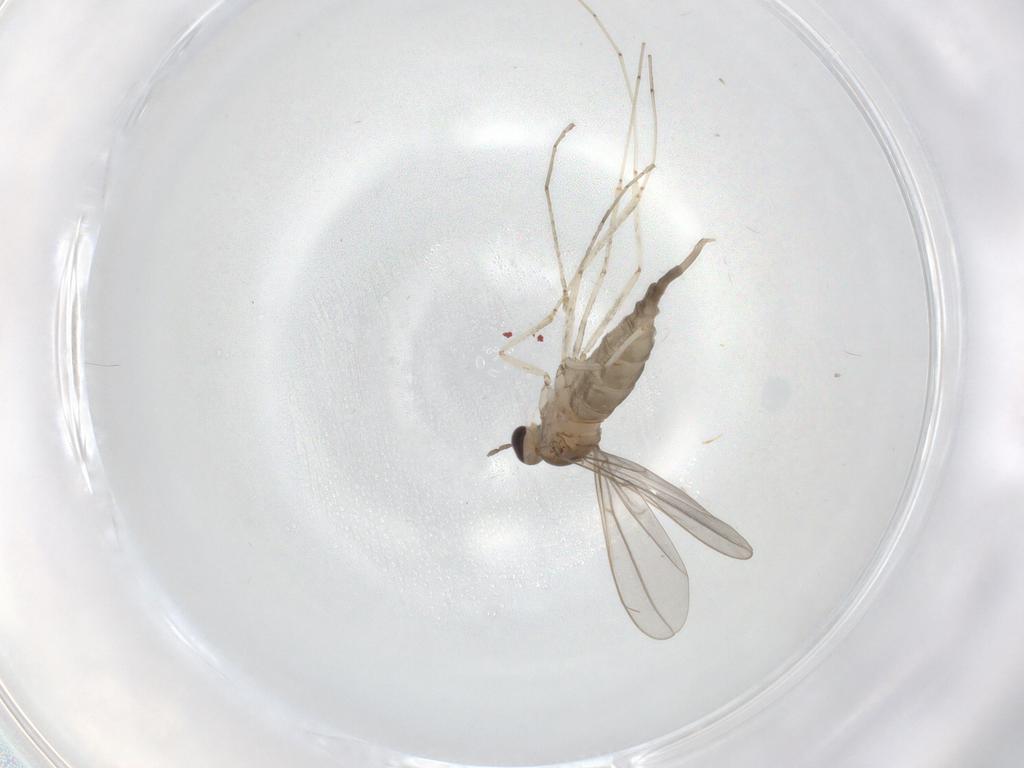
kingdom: Animalia
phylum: Arthropoda
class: Insecta
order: Diptera
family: Cecidomyiidae
